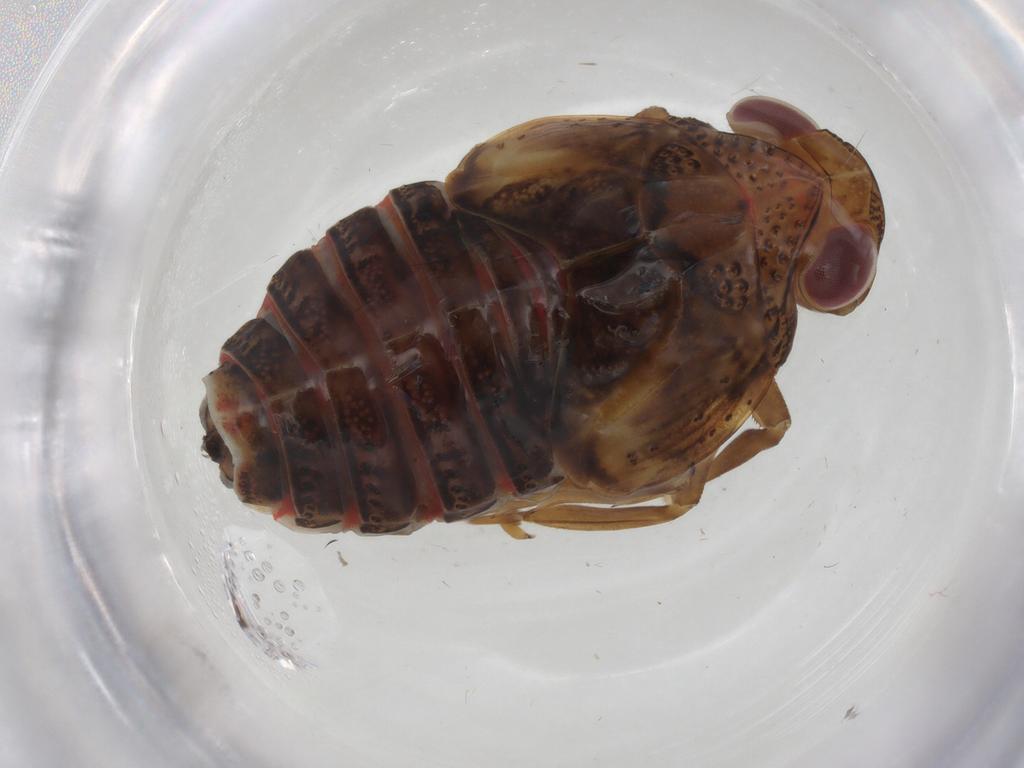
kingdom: Animalia
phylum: Arthropoda
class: Insecta
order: Hemiptera
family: Issidae
